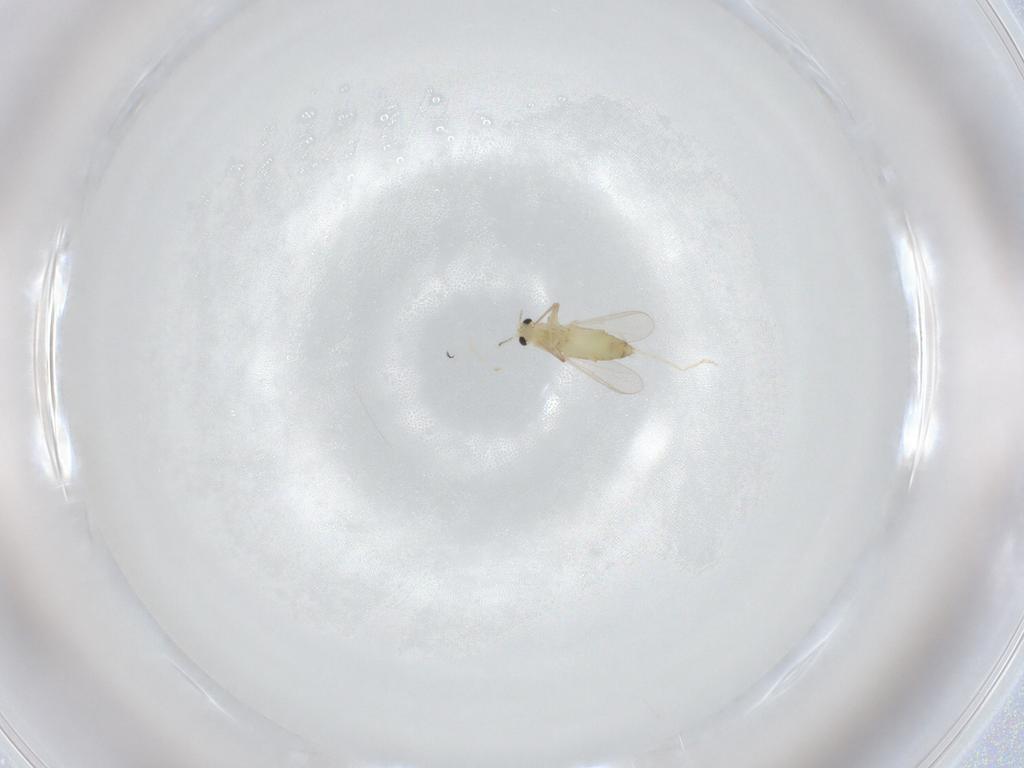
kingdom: Animalia
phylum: Arthropoda
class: Insecta
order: Diptera
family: Chironomidae
